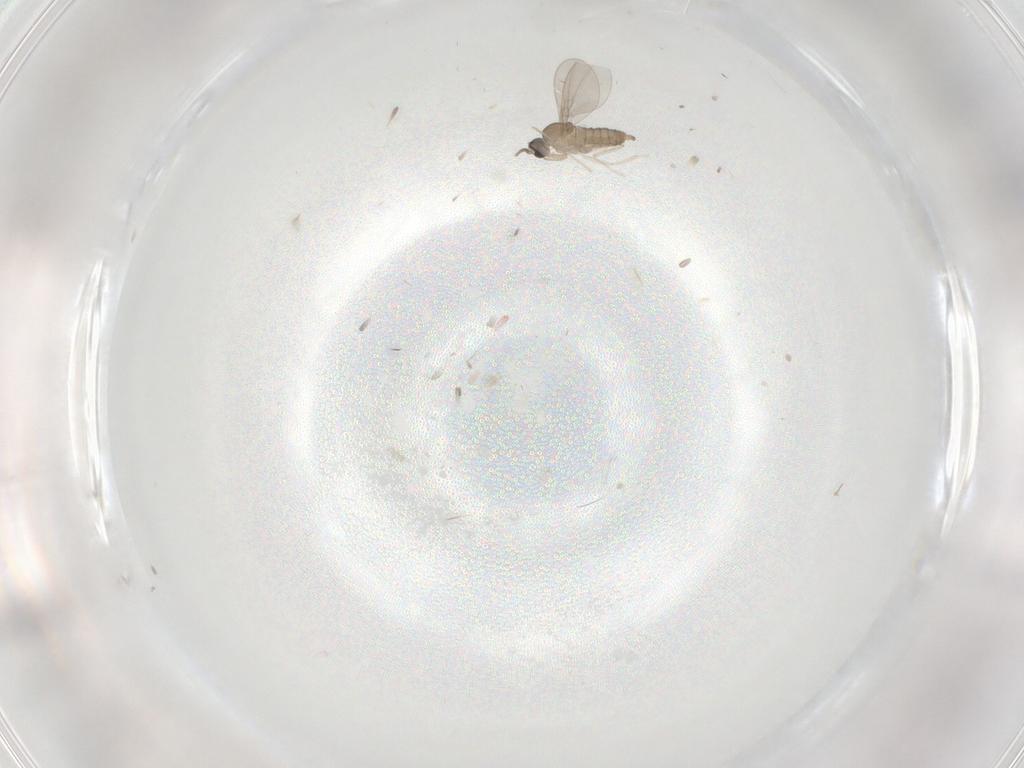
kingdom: Animalia
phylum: Arthropoda
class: Insecta
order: Diptera
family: Cecidomyiidae
